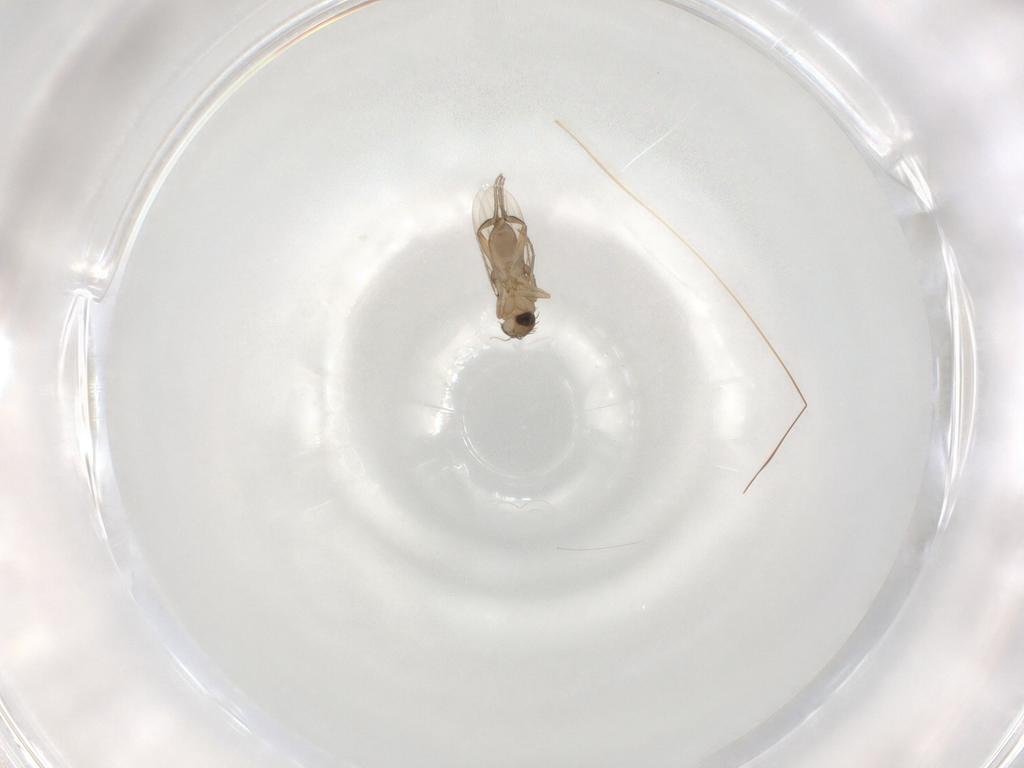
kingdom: Animalia
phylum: Arthropoda
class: Insecta
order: Diptera
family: Phoridae
